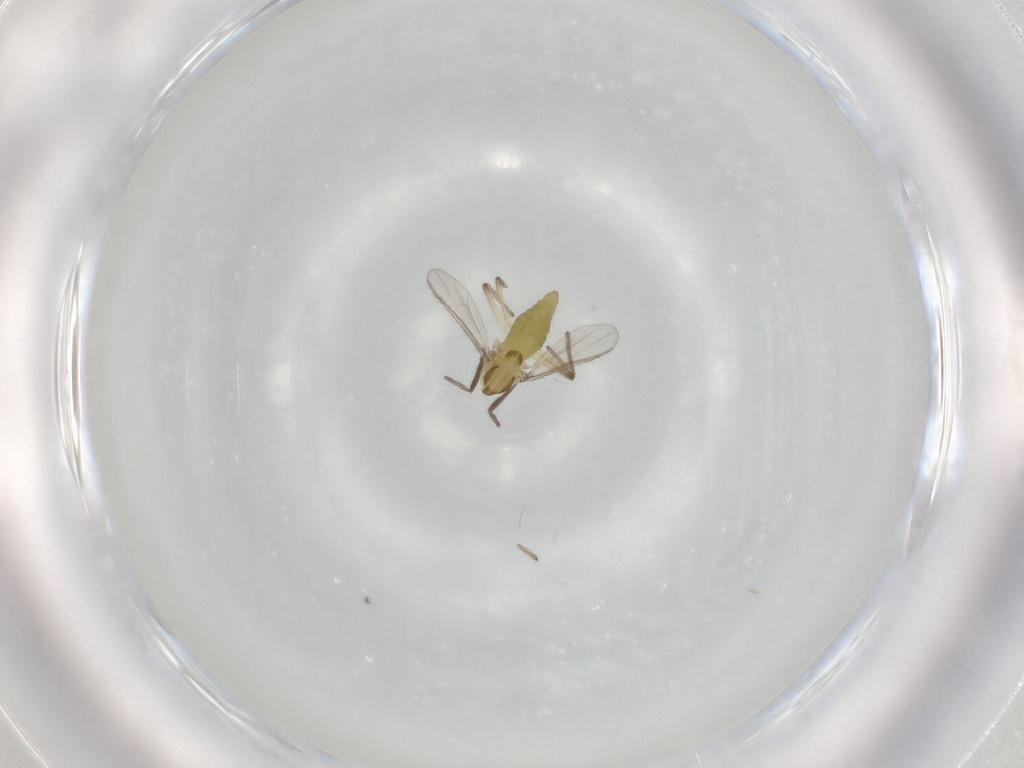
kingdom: Animalia
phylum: Arthropoda
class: Insecta
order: Diptera
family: Chironomidae
